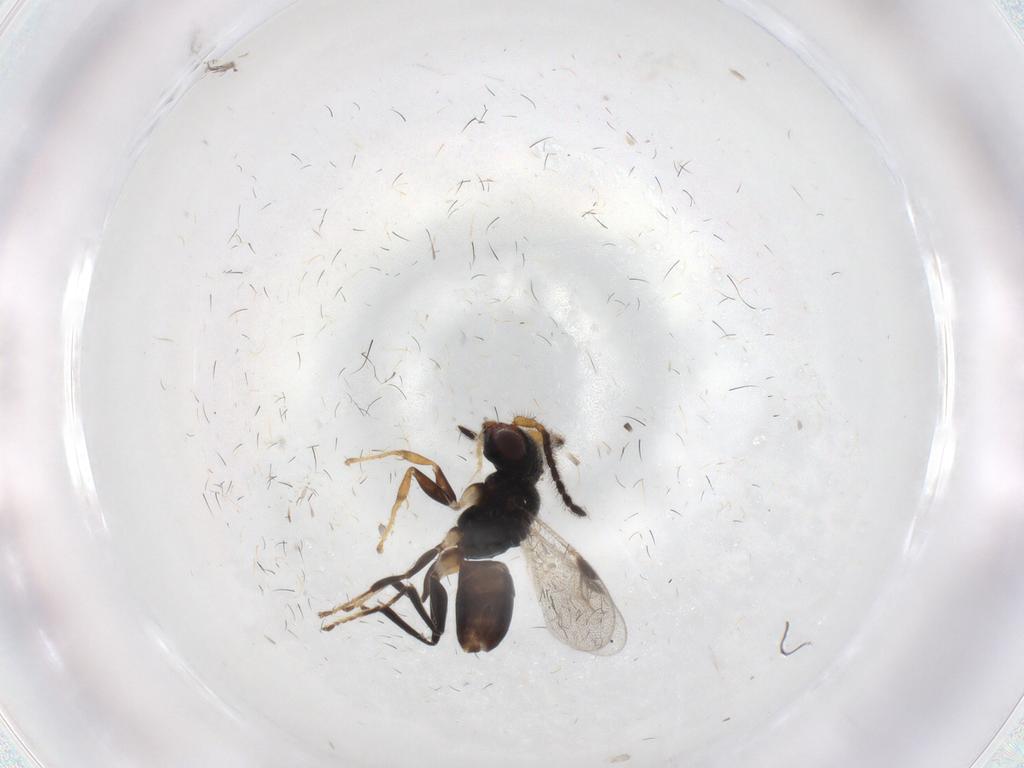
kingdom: Animalia
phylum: Arthropoda
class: Insecta
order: Hymenoptera
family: Dryinidae
